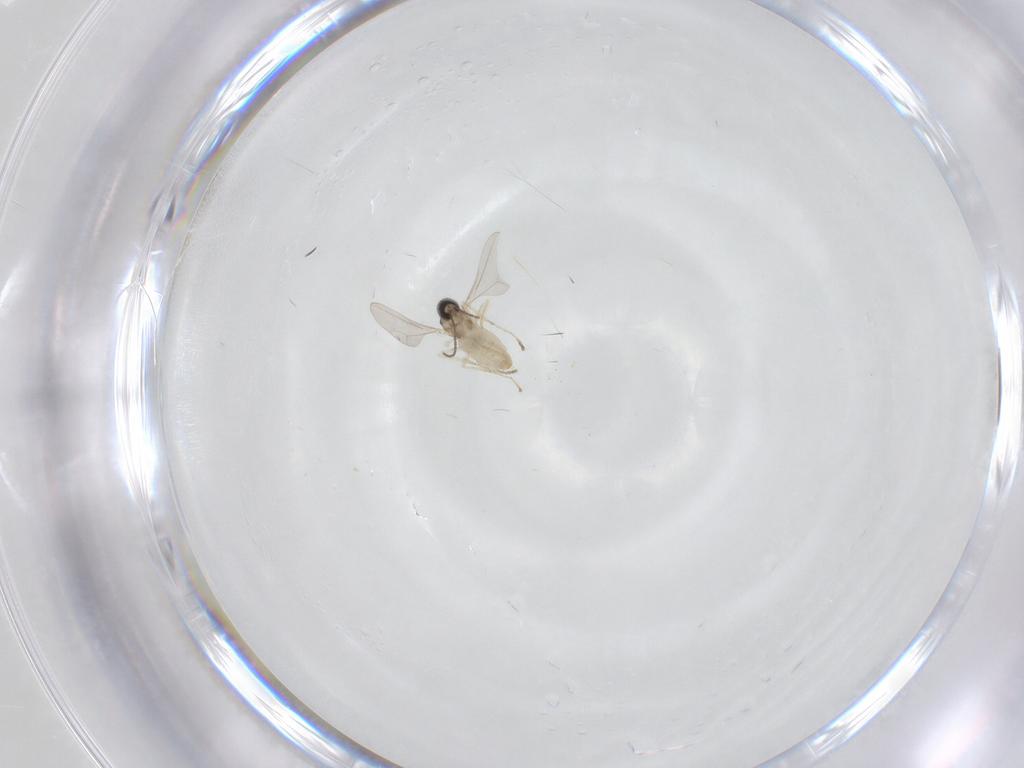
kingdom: Animalia
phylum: Arthropoda
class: Insecta
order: Diptera
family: Cecidomyiidae
